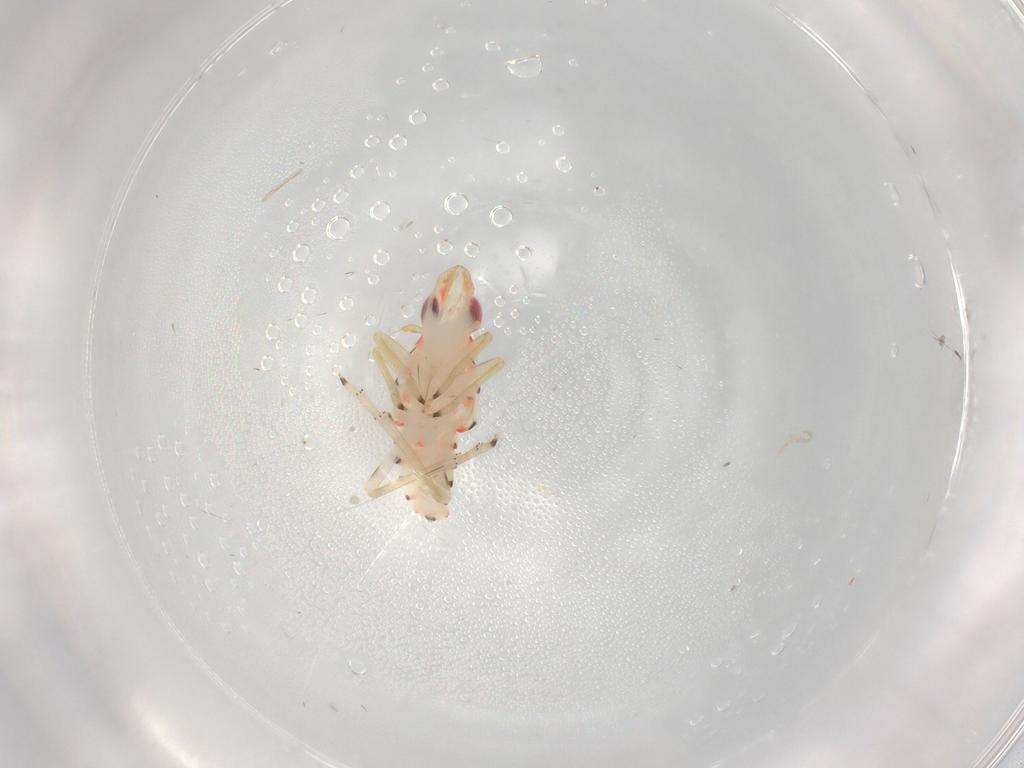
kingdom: Animalia
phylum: Arthropoda
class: Insecta
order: Hemiptera
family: Tropiduchidae
